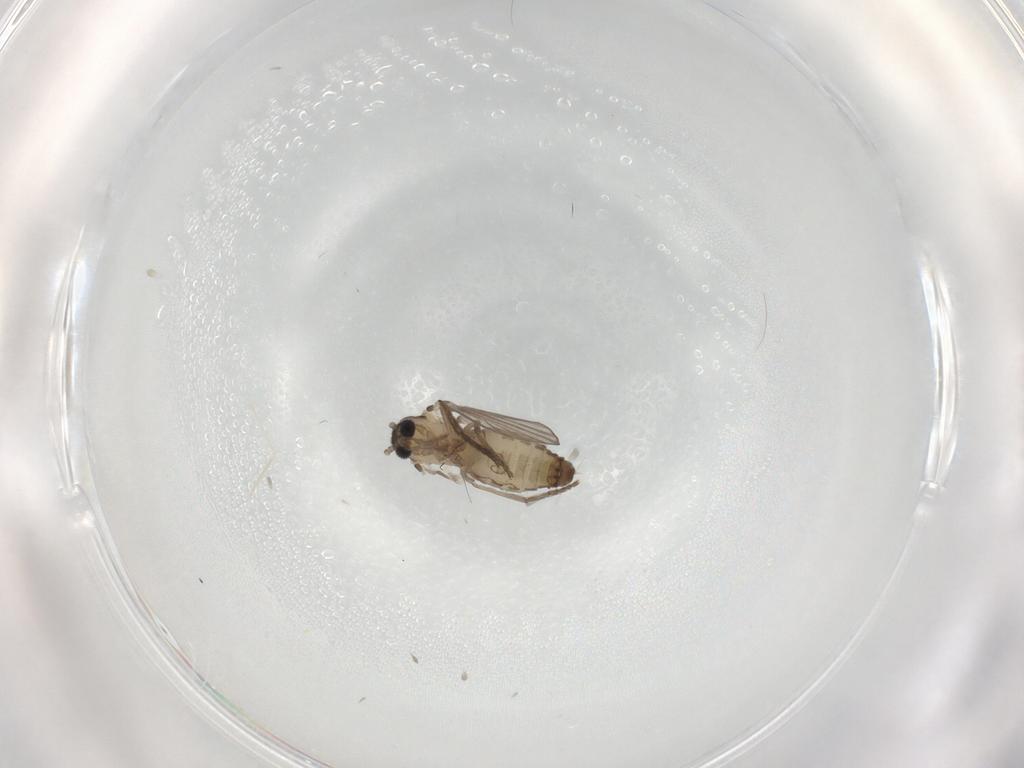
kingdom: Animalia
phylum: Arthropoda
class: Insecta
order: Diptera
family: Psychodidae
